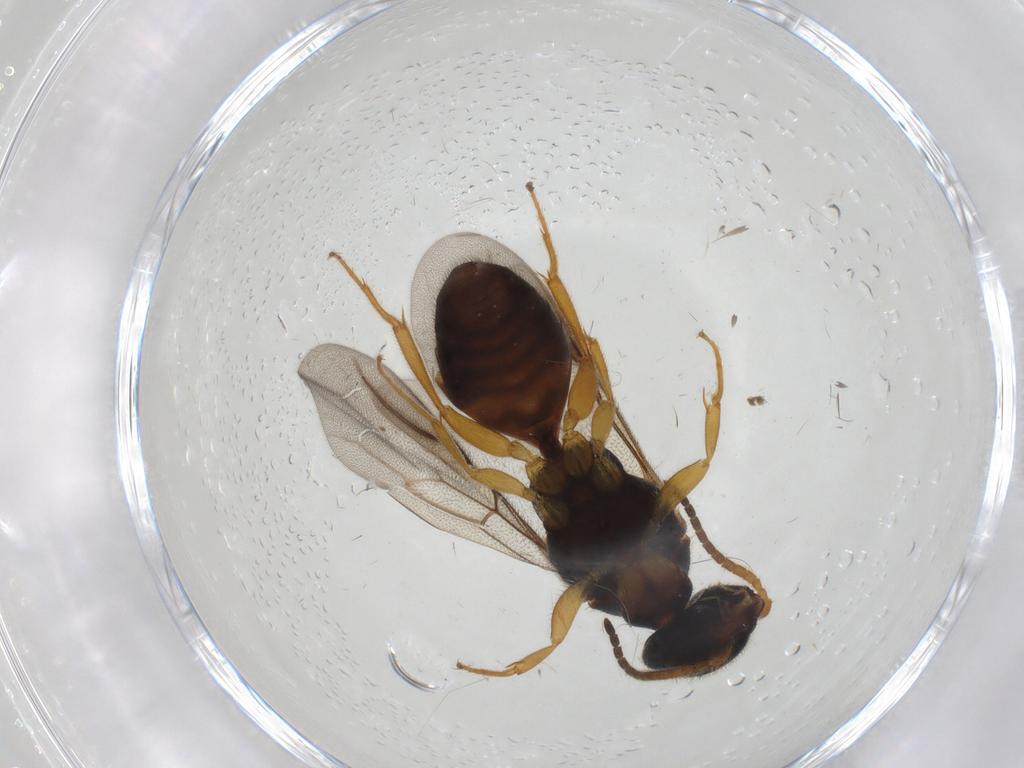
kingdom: Animalia
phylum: Arthropoda
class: Insecta
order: Hymenoptera
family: Bethylidae
